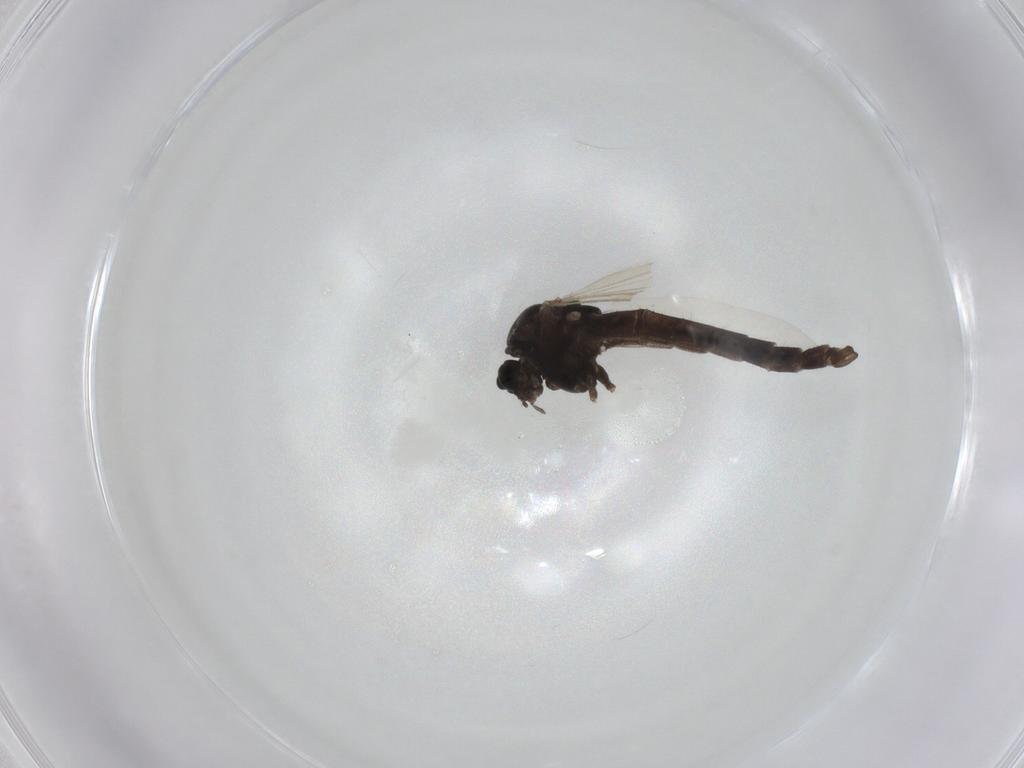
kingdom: Animalia
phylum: Arthropoda
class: Insecta
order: Diptera
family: Chironomidae
